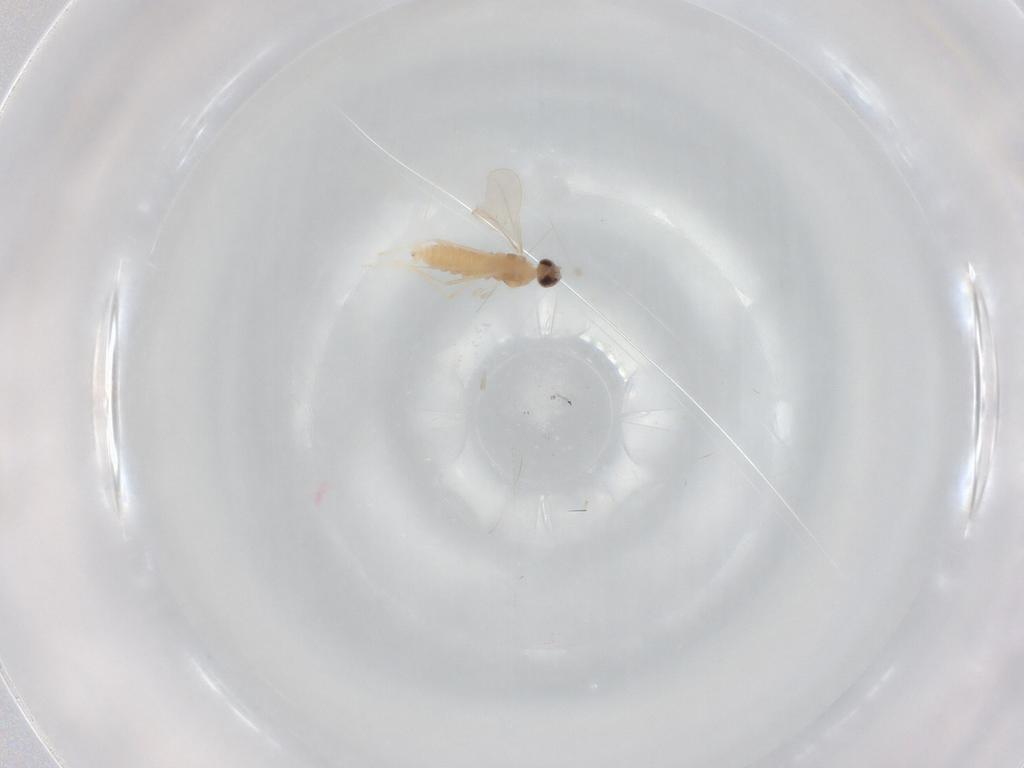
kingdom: Animalia
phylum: Arthropoda
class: Insecta
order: Diptera
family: Cecidomyiidae
